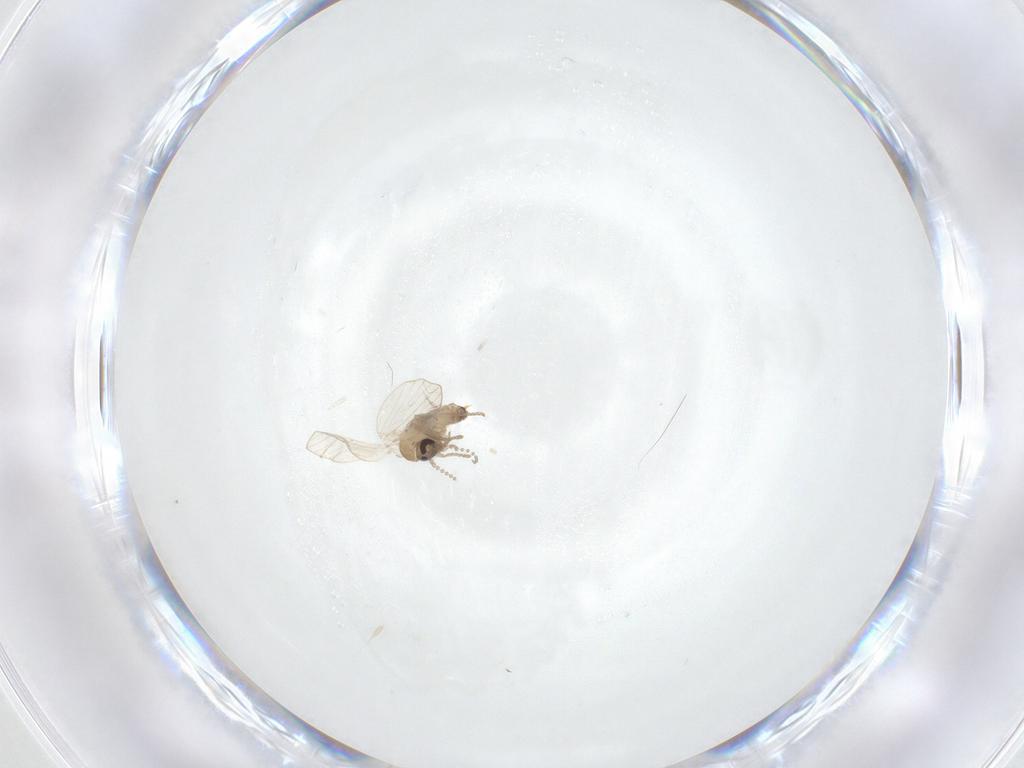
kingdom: Animalia
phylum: Arthropoda
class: Insecta
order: Diptera
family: Psychodidae
